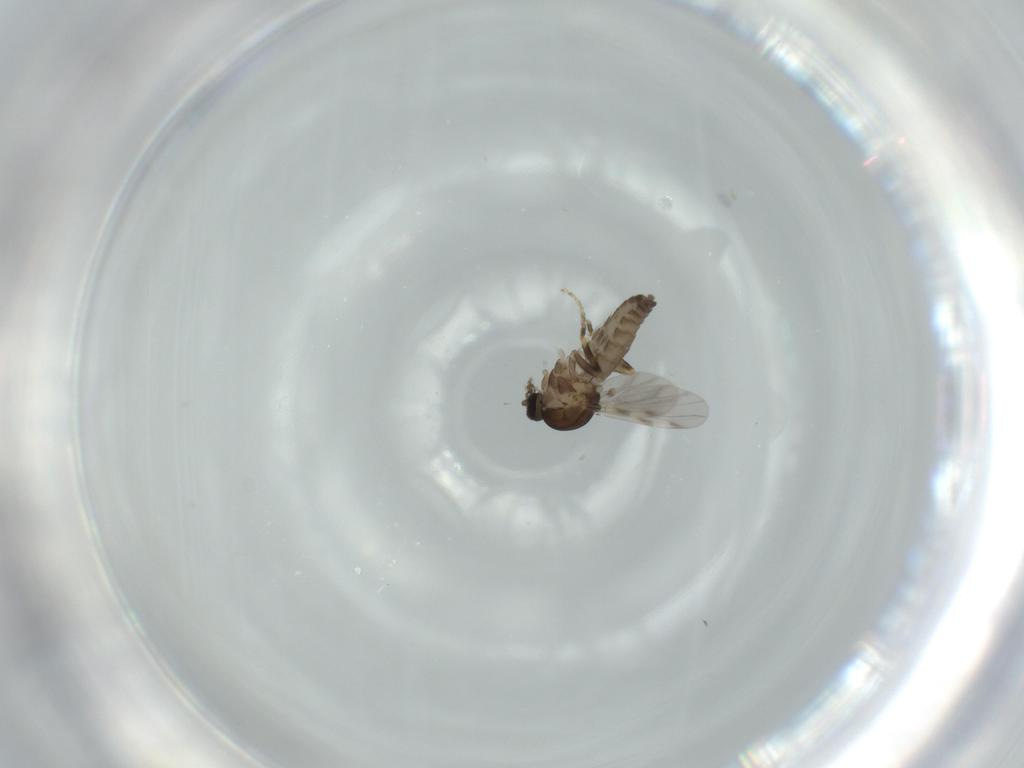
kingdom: Animalia
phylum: Arthropoda
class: Insecta
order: Diptera
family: Ceratopogonidae
